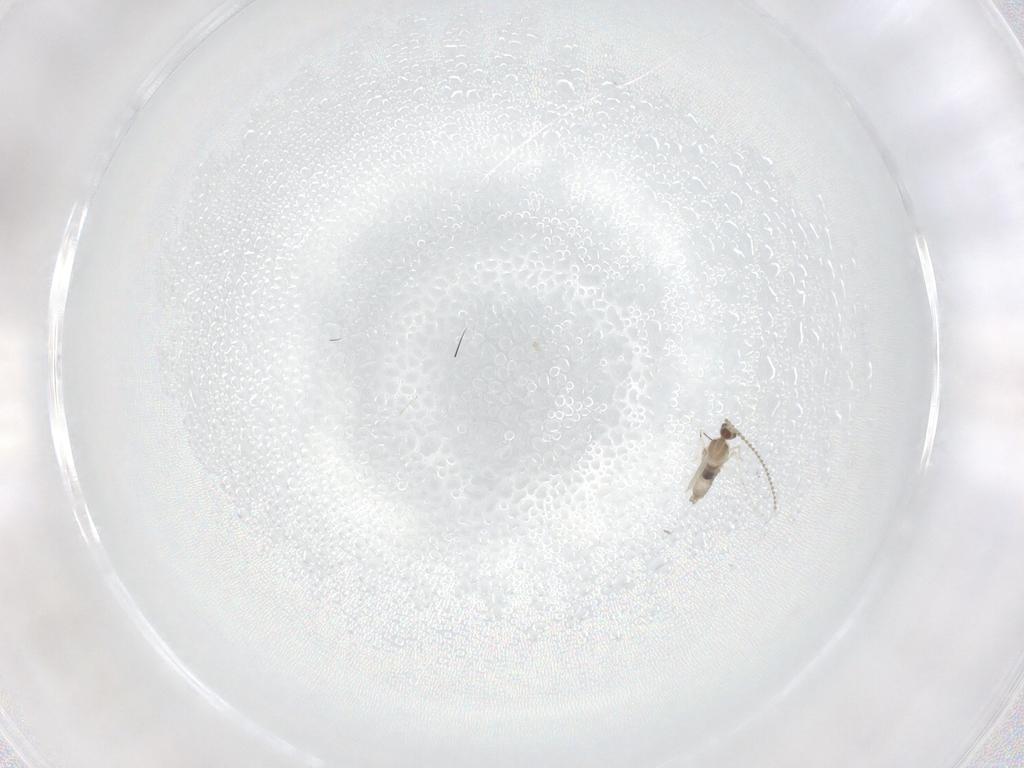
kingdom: Animalia
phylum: Arthropoda
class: Insecta
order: Diptera
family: Cecidomyiidae
